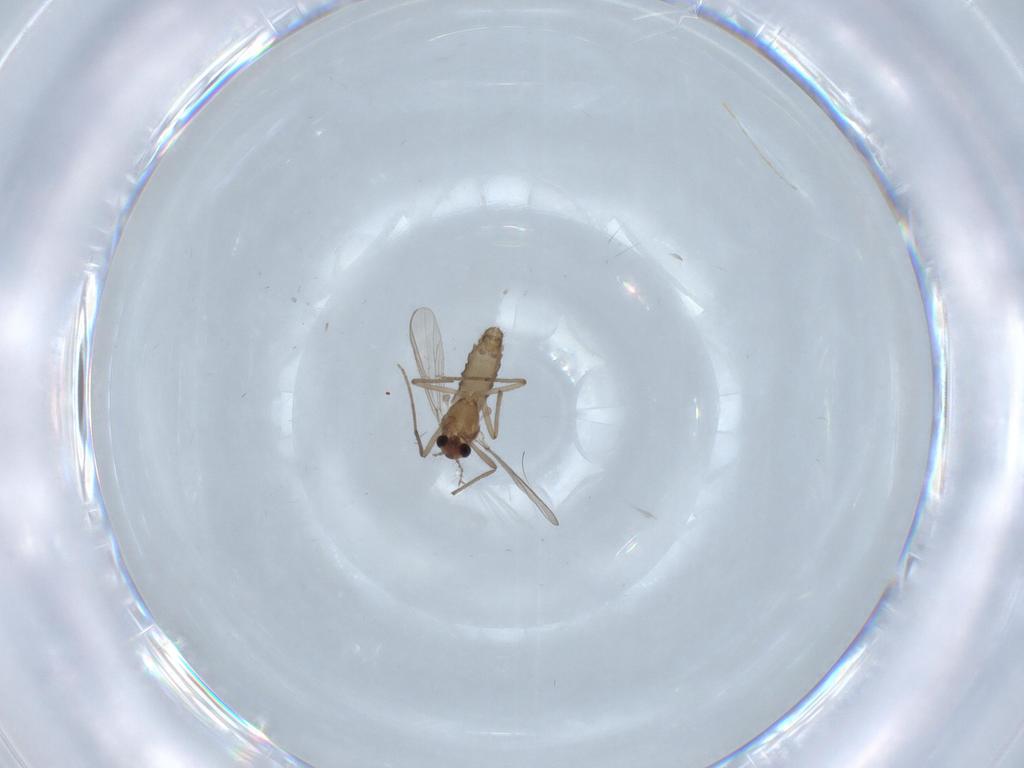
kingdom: Animalia
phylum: Arthropoda
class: Insecta
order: Diptera
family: Chironomidae
